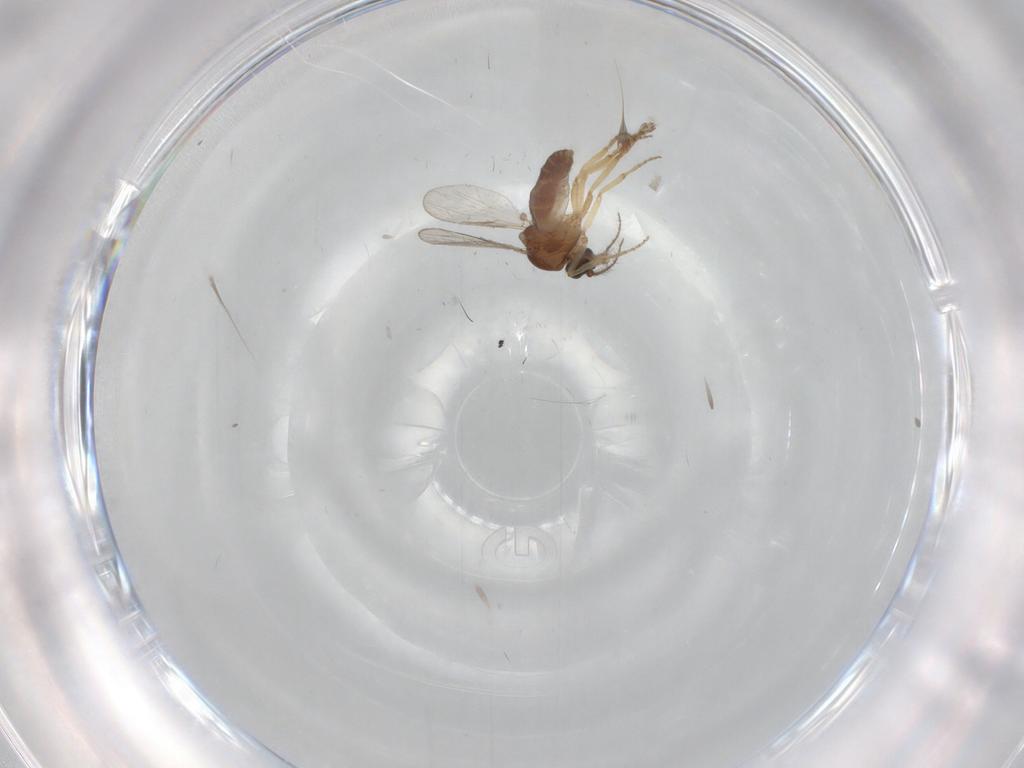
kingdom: Animalia
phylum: Arthropoda
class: Insecta
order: Diptera
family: Ceratopogonidae
